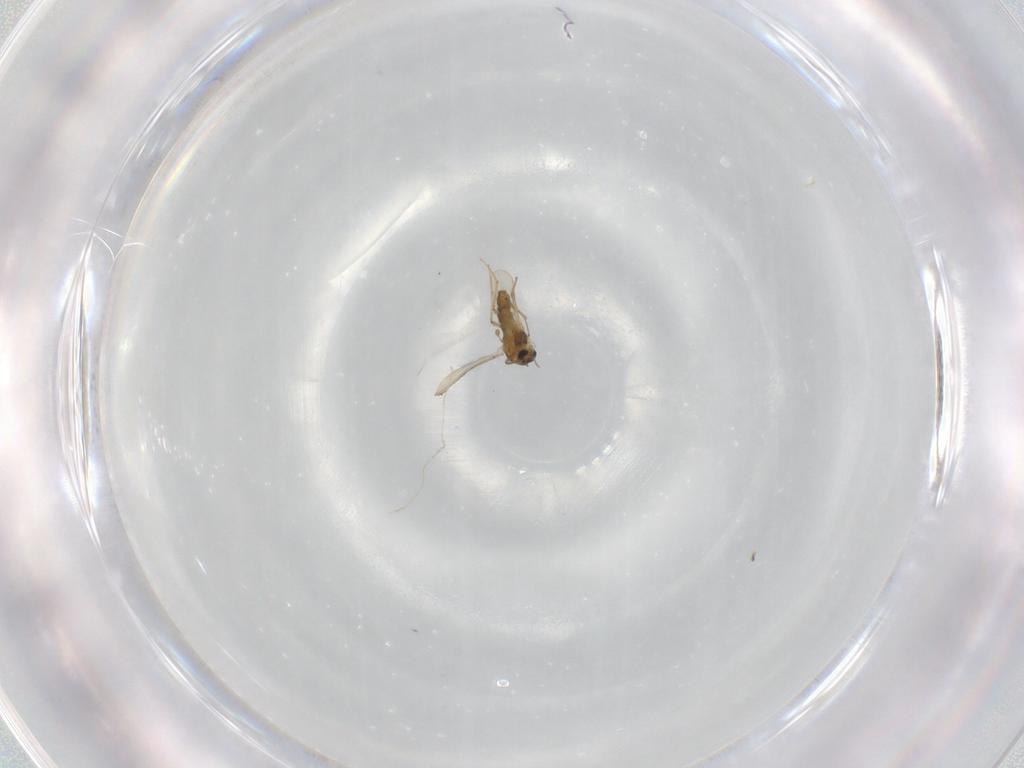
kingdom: Animalia
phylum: Arthropoda
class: Insecta
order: Diptera
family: Chironomidae
